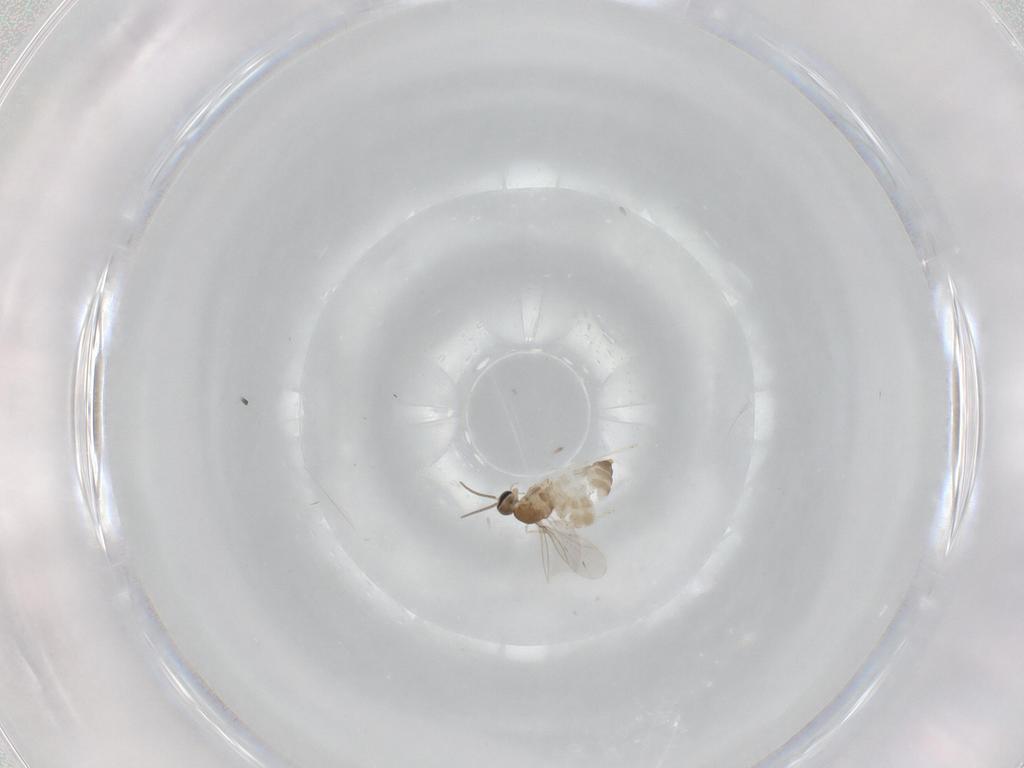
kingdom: Animalia
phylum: Arthropoda
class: Insecta
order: Diptera
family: Cecidomyiidae
